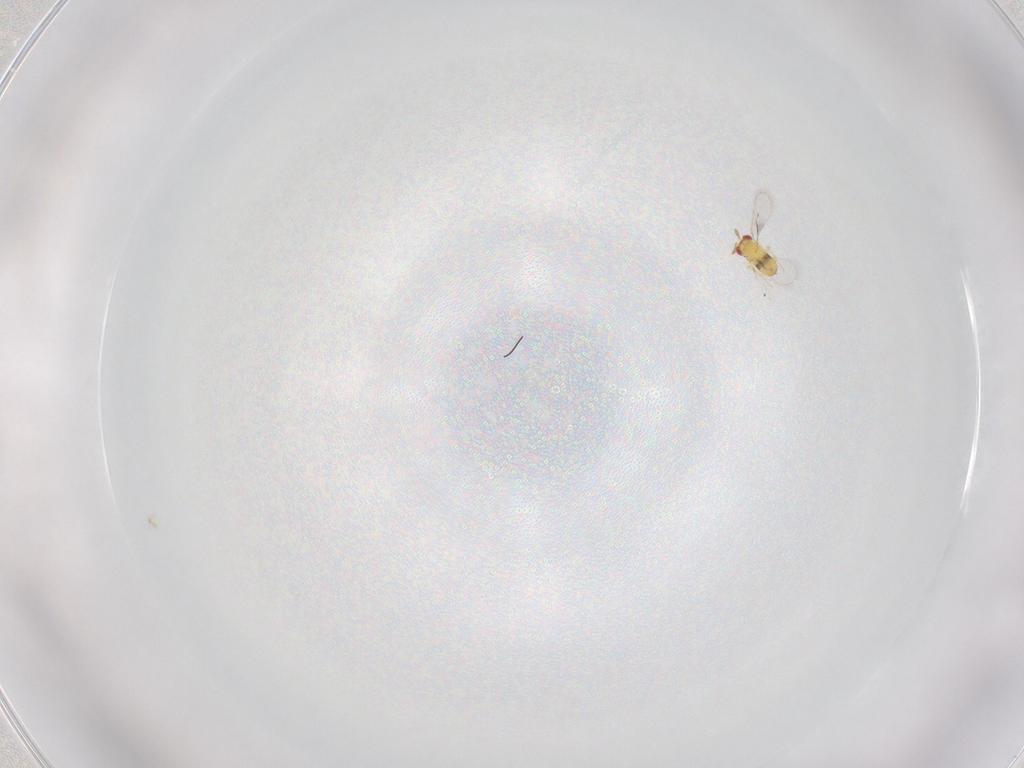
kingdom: Animalia
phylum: Arthropoda
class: Insecta
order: Hymenoptera
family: Trichogrammatidae
